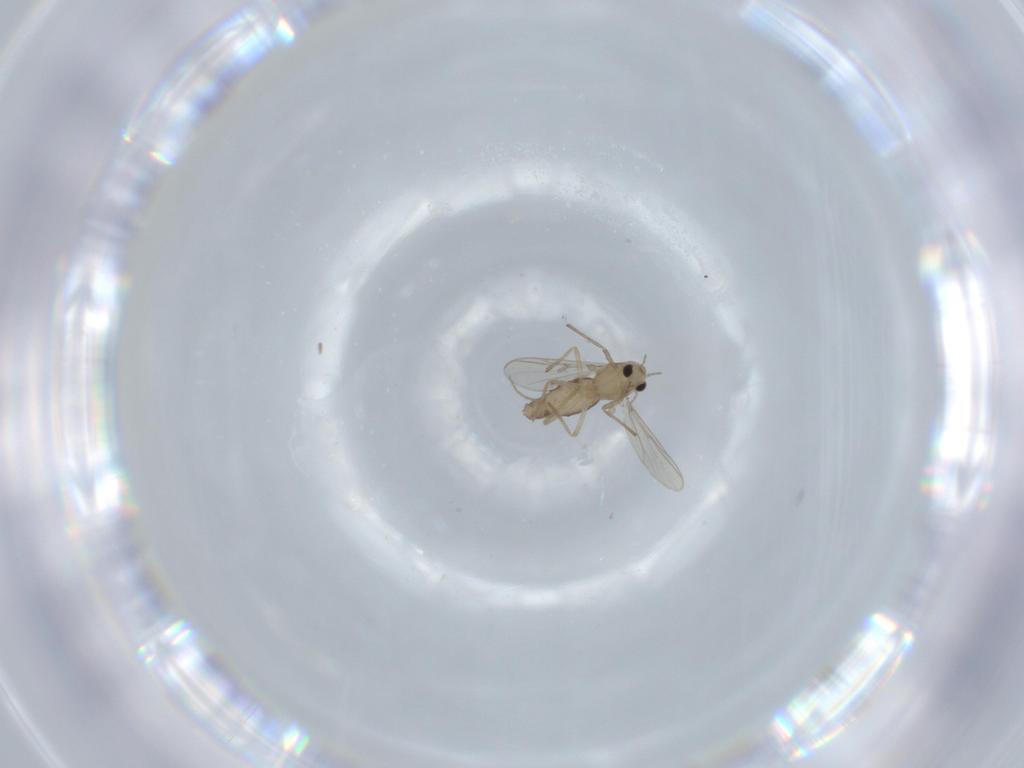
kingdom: Animalia
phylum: Arthropoda
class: Insecta
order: Diptera
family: Chironomidae
